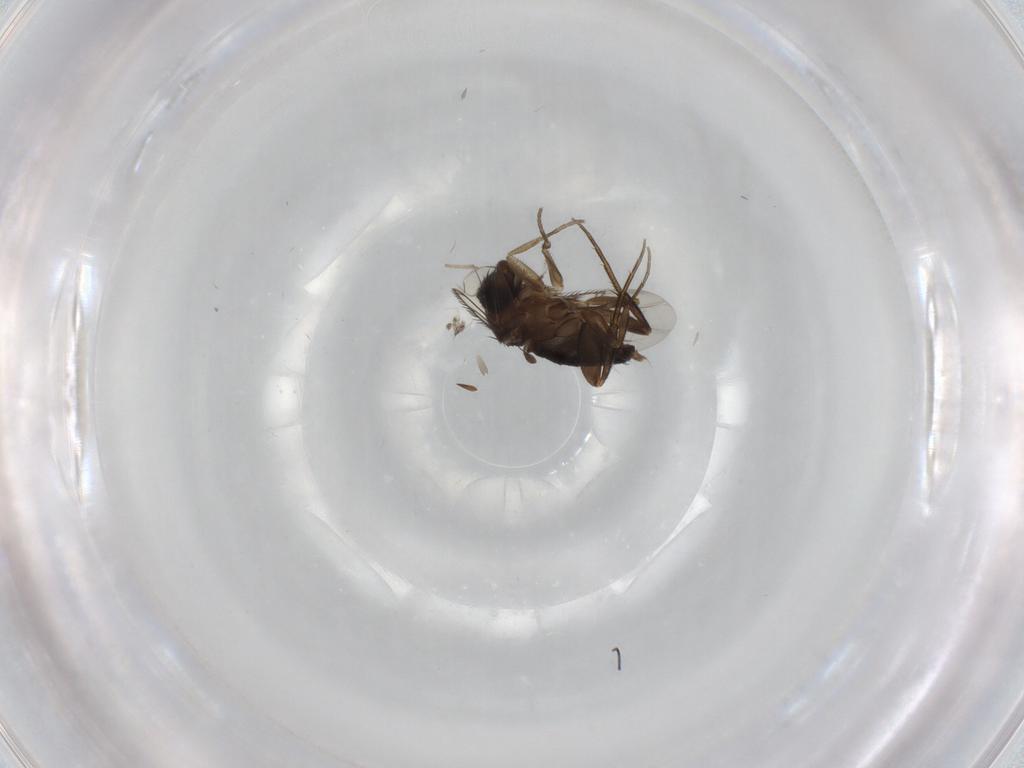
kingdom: Animalia
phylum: Arthropoda
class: Insecta
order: Diptera
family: Phoridae
